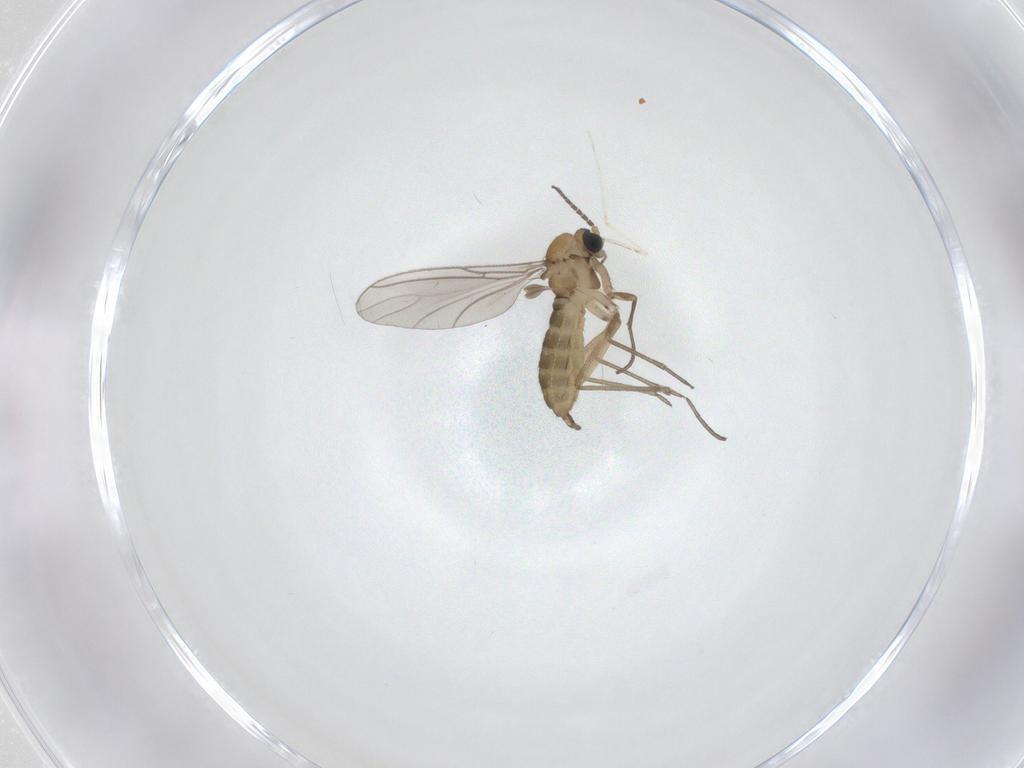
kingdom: Animalia
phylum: Arthropoda
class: Insecta
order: Diptera
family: Sciaridae
